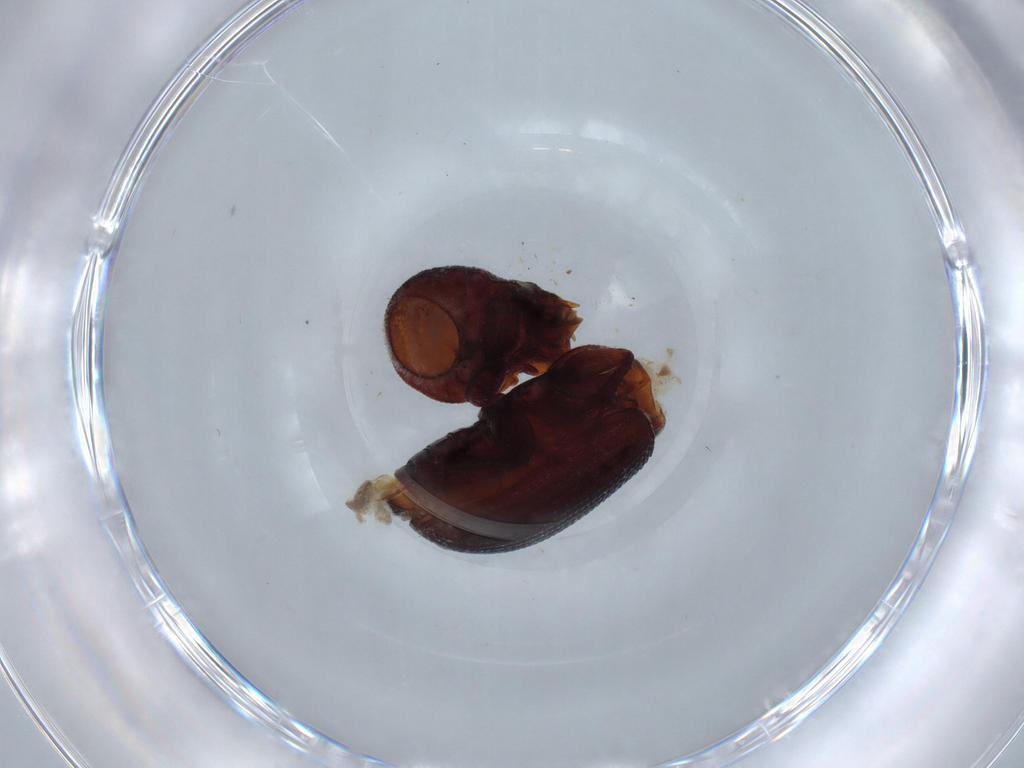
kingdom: Animalia
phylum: Arthropoda
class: Insecta
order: Coleoptera
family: Scarabaeidae
